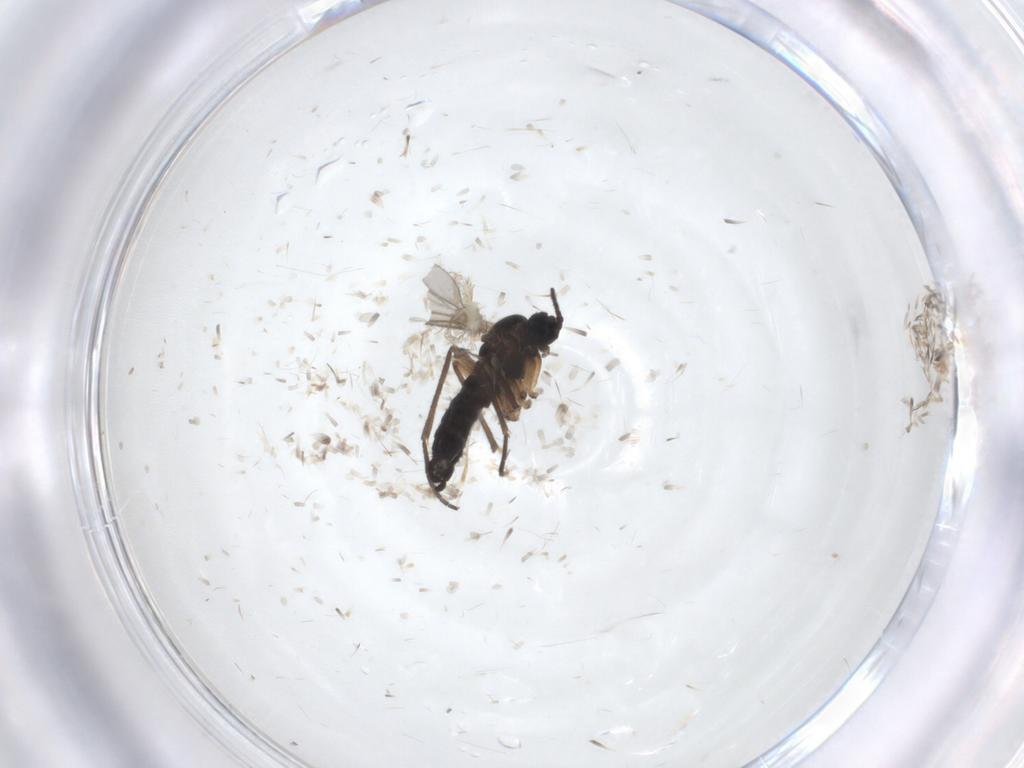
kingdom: Animalia
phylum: Arthropoda
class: Insecta
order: Diptera
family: Sciaridae
